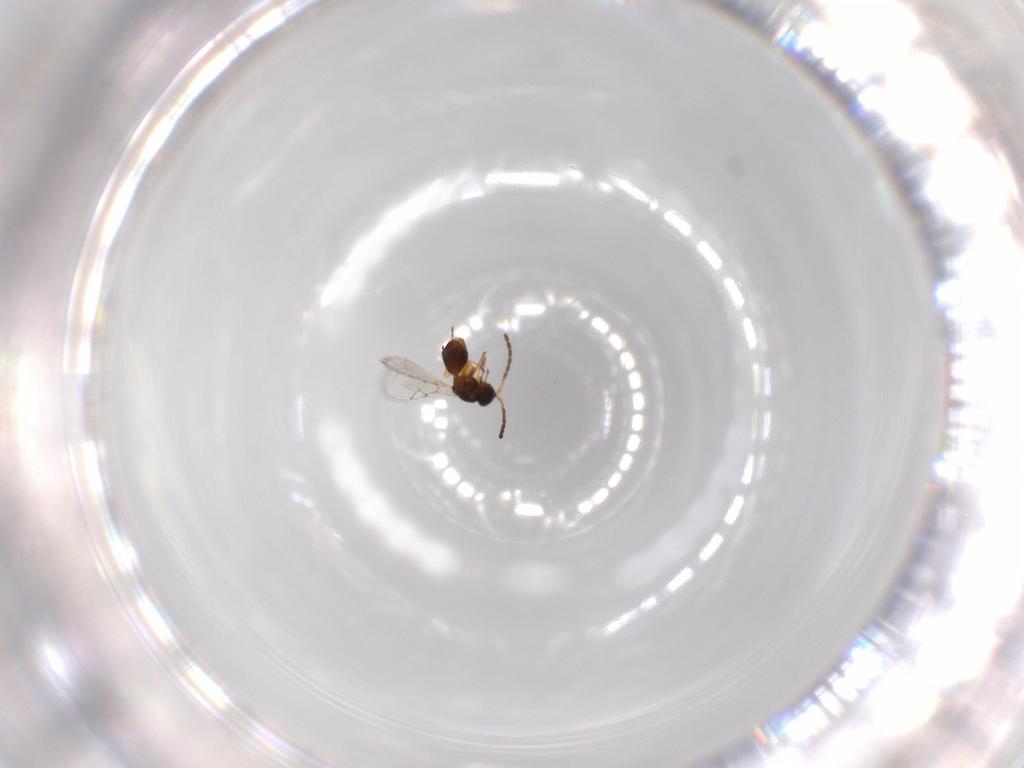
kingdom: Animalia
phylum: Arthropoda
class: Insecta
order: Hymenoptera
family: Figitidae
